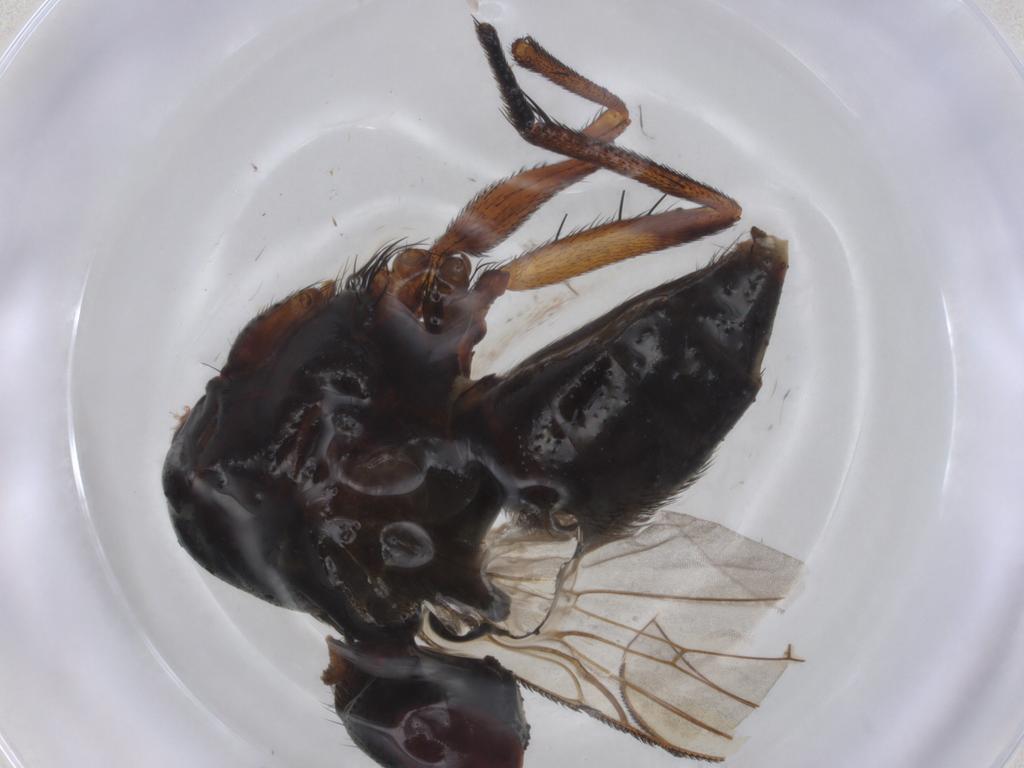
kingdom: Animalia
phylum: Arthropoda
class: Insecta
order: Diptera
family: Muscidae
